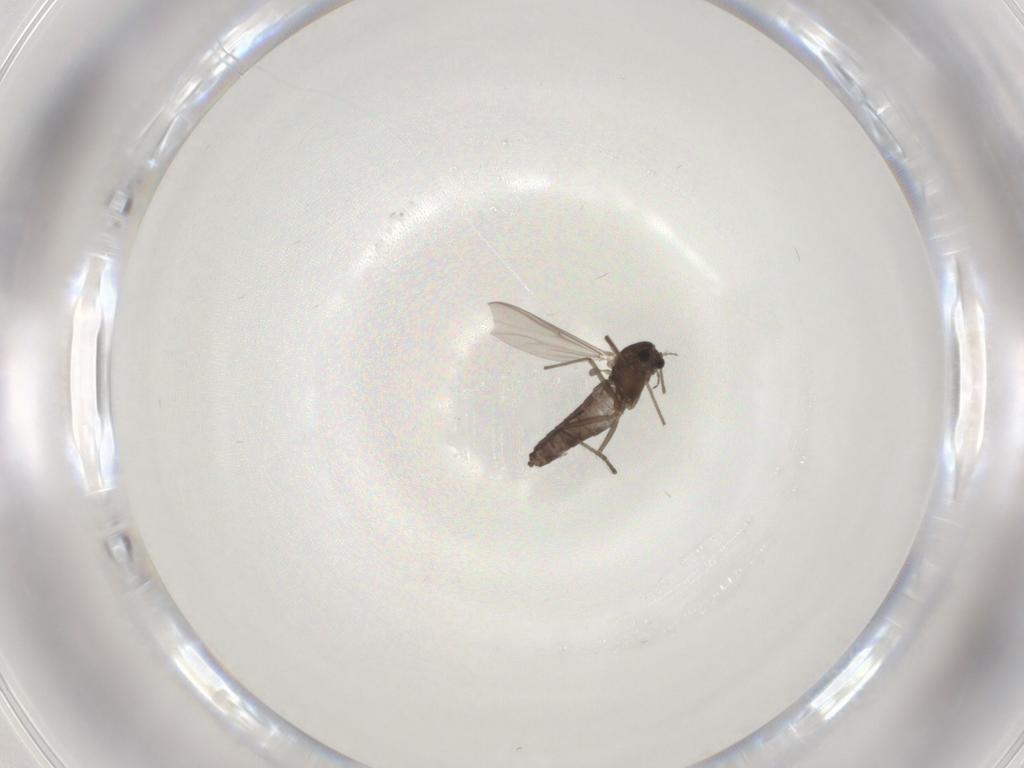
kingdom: Animalia
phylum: Arthropoda
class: Insecta
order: Diptera
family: Chironomidae
